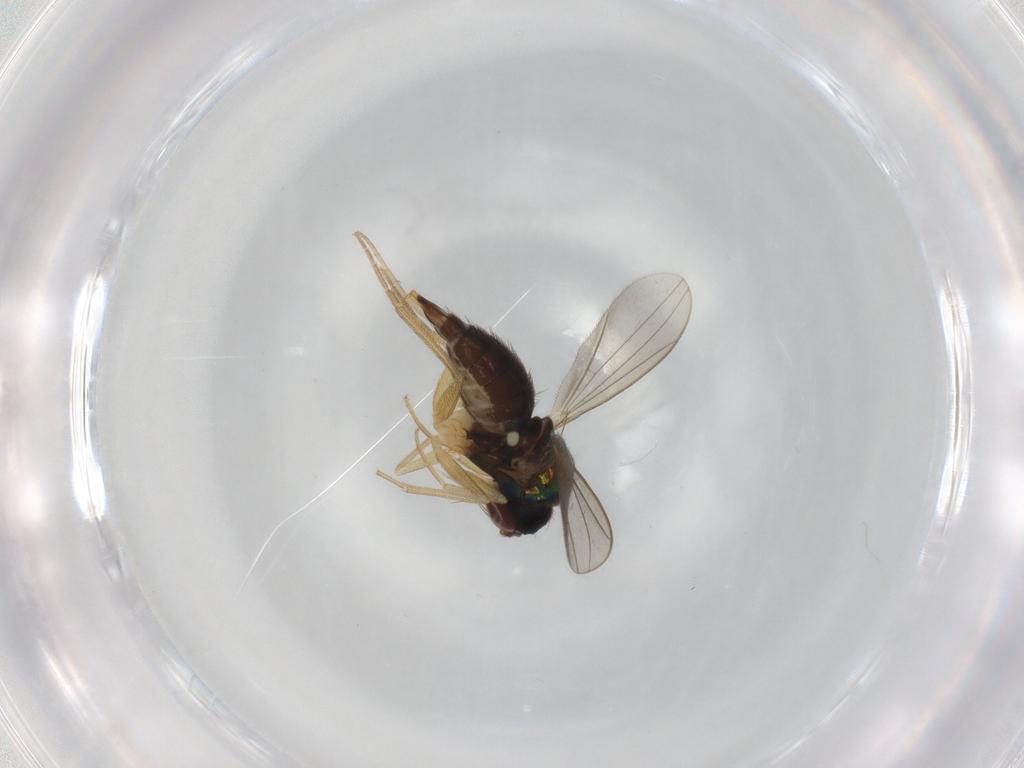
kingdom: Animalia
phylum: Arthropoda
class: Insecta
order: Diptera
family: Dolichopodidae
